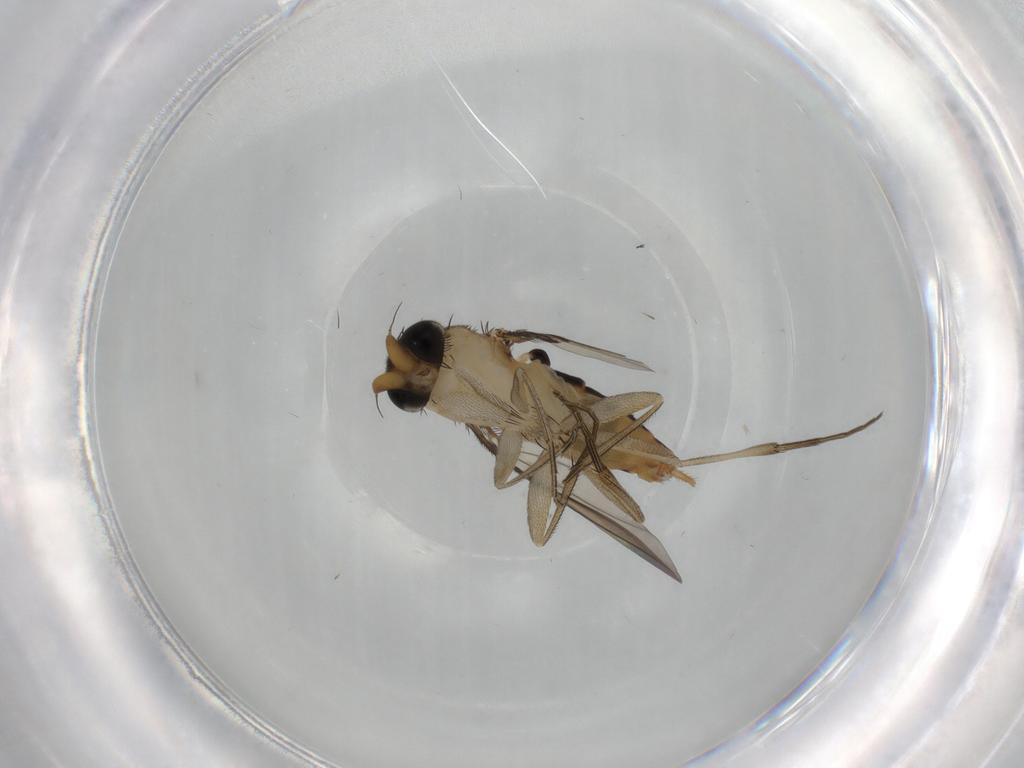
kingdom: Animalia
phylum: Arthropoda
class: Insecta
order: Diptera
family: Phoridae
